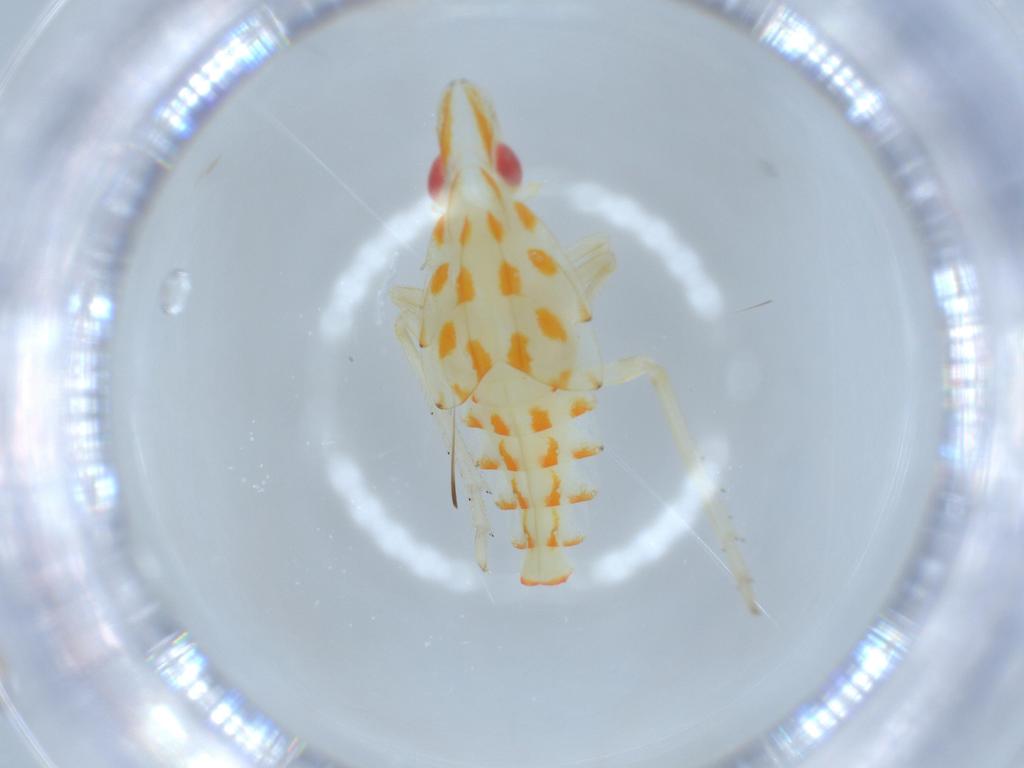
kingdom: Animalia
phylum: Arthropoda
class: Insecta
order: Hemiptera
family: Tropiduchidae
